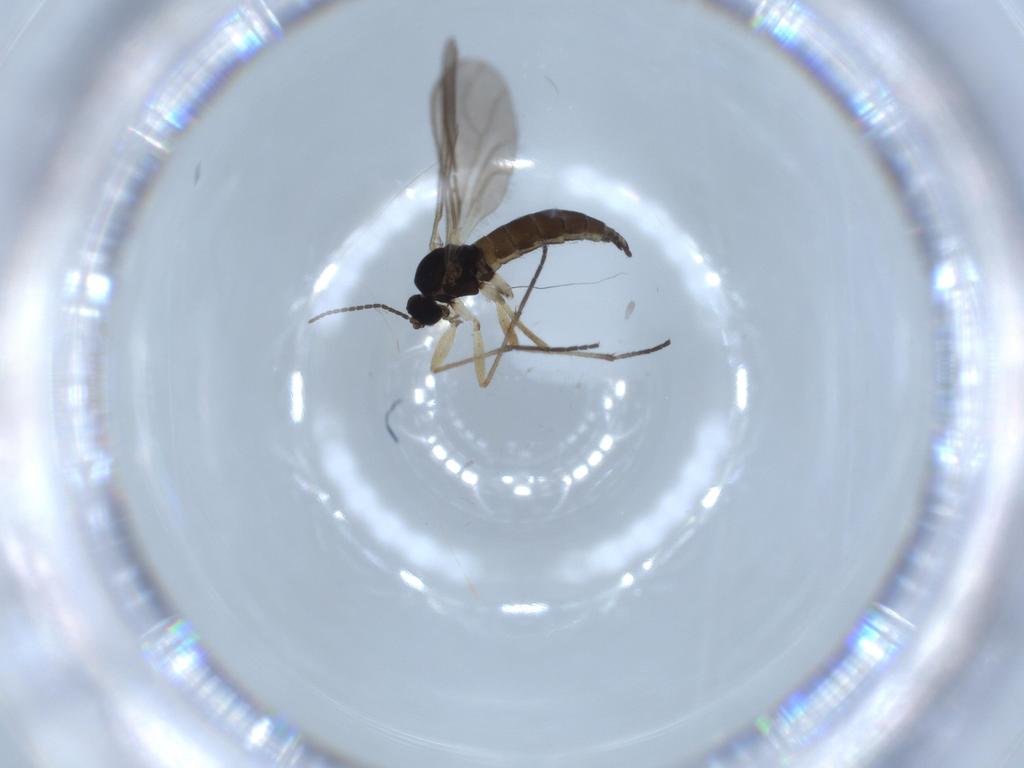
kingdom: Animalia
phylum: Arthropoda
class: Insecta
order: Diptera
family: Sciaridae
